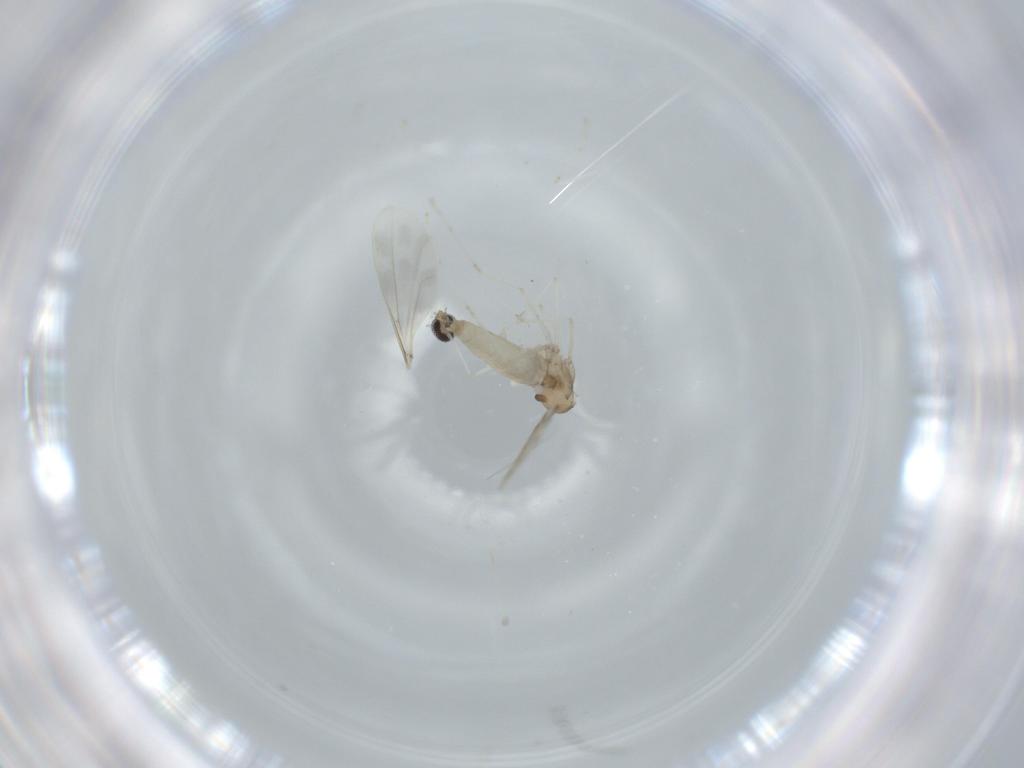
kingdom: Animalia
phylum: Arthropoda
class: Insecta
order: Diptera
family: Cecidomyiidae
